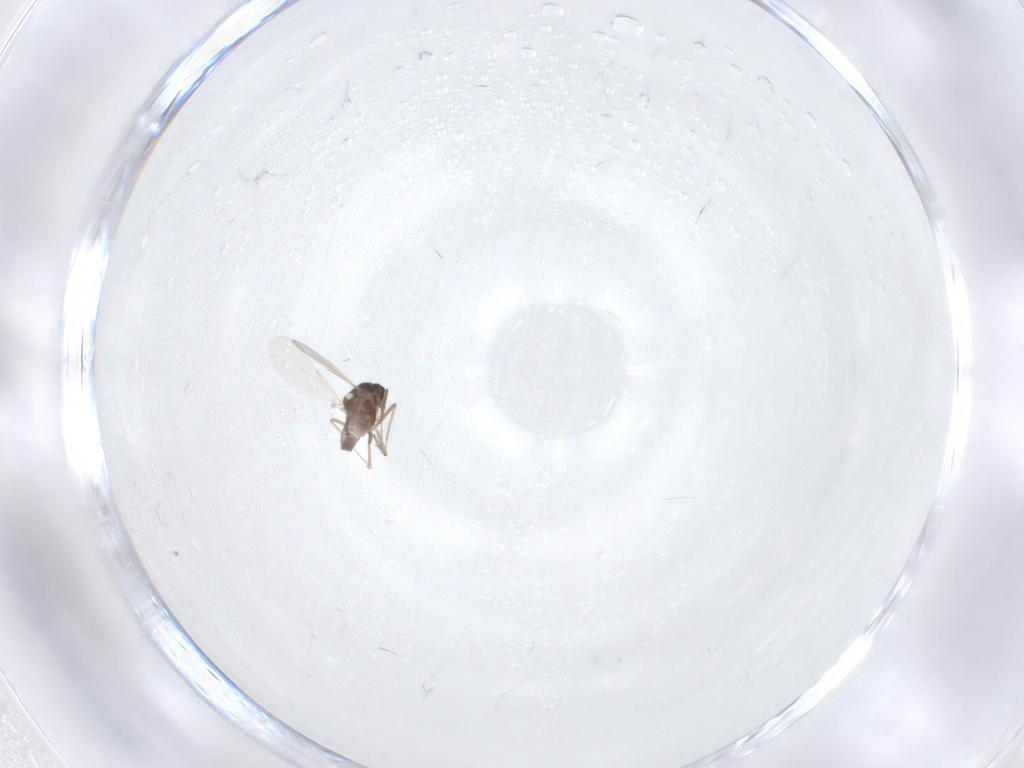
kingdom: Animalia
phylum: Arthropoda
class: Insecta
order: Diptera
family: Ceratopogonidae
